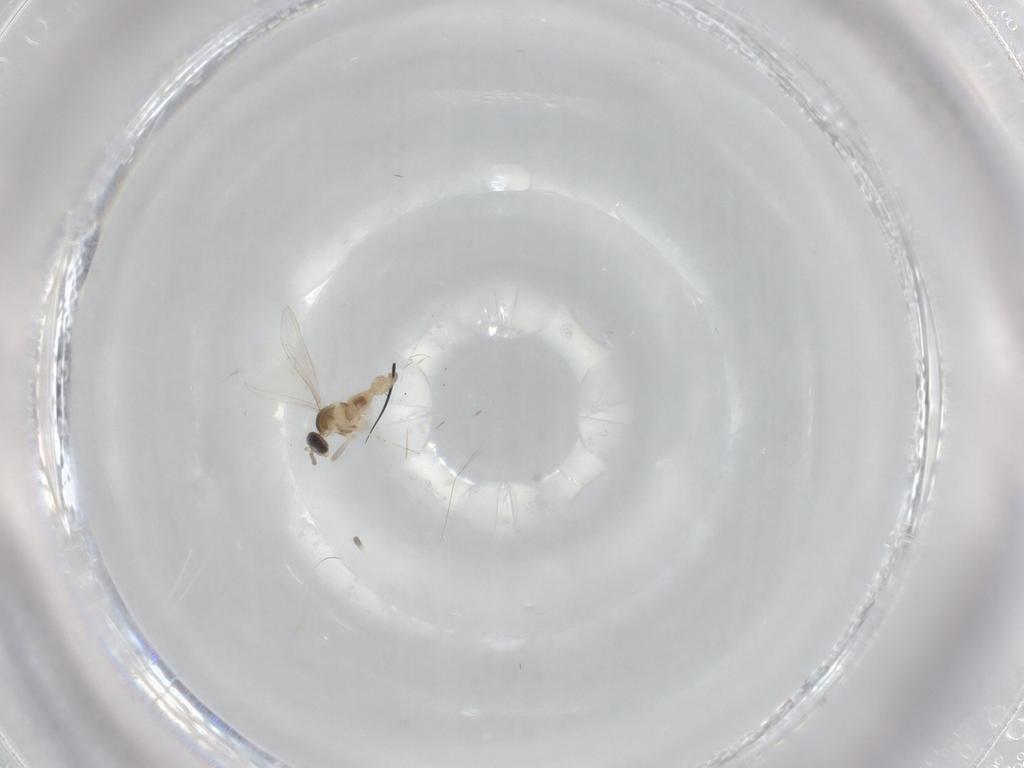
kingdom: Animalia
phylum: Arthropoda
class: Insecta
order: Diptera
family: Cecidomyiidae
